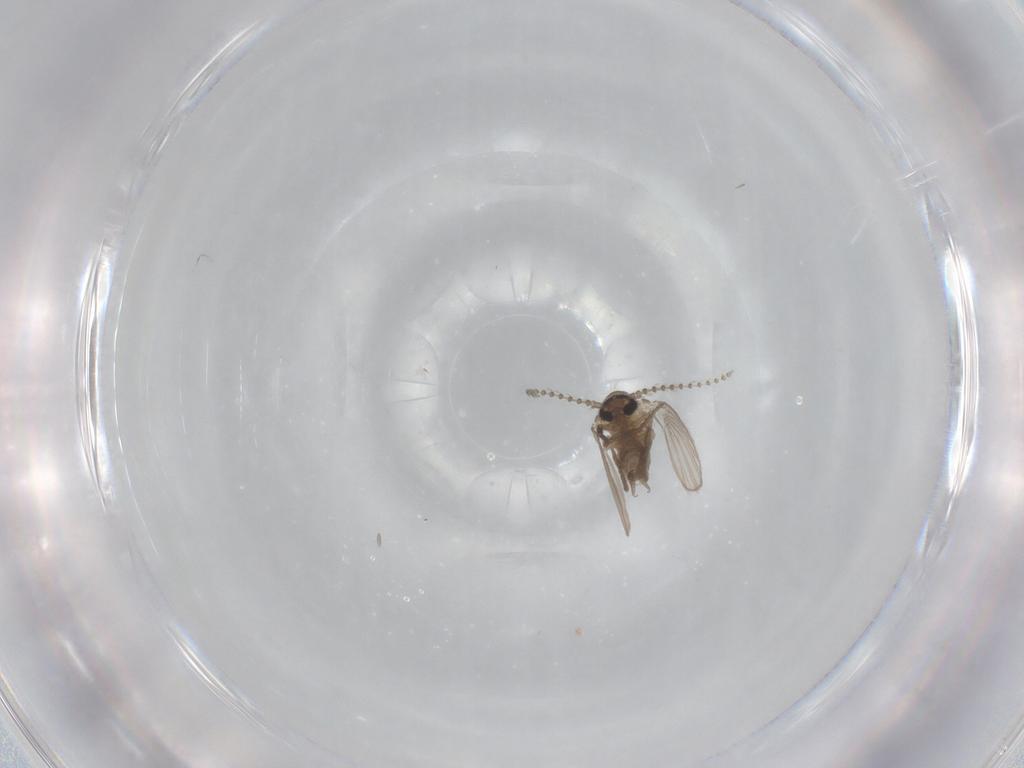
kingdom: Animalia
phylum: Arthropoda
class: Insecta
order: Diptera
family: Psychodidae
